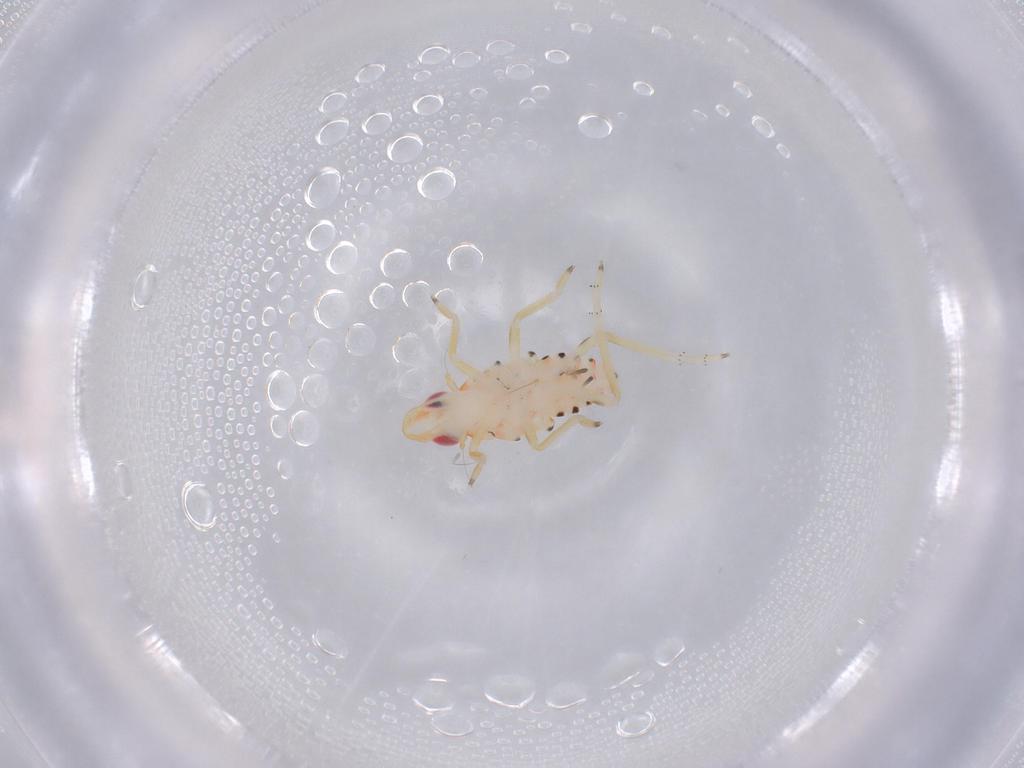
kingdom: Animalia
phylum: Arthropoda
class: Insecta
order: Hemiptera
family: Tropiduchidae
